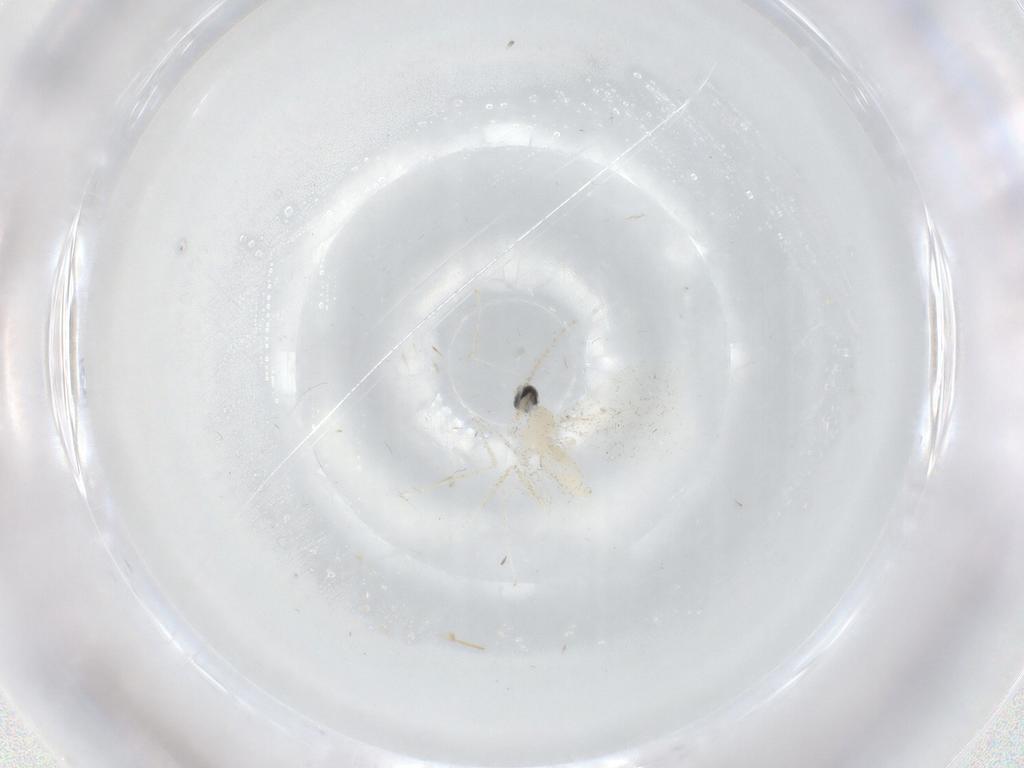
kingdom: Animalia
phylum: Arthropoda
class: Insecta
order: Diptera
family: Cecidomyiidae
